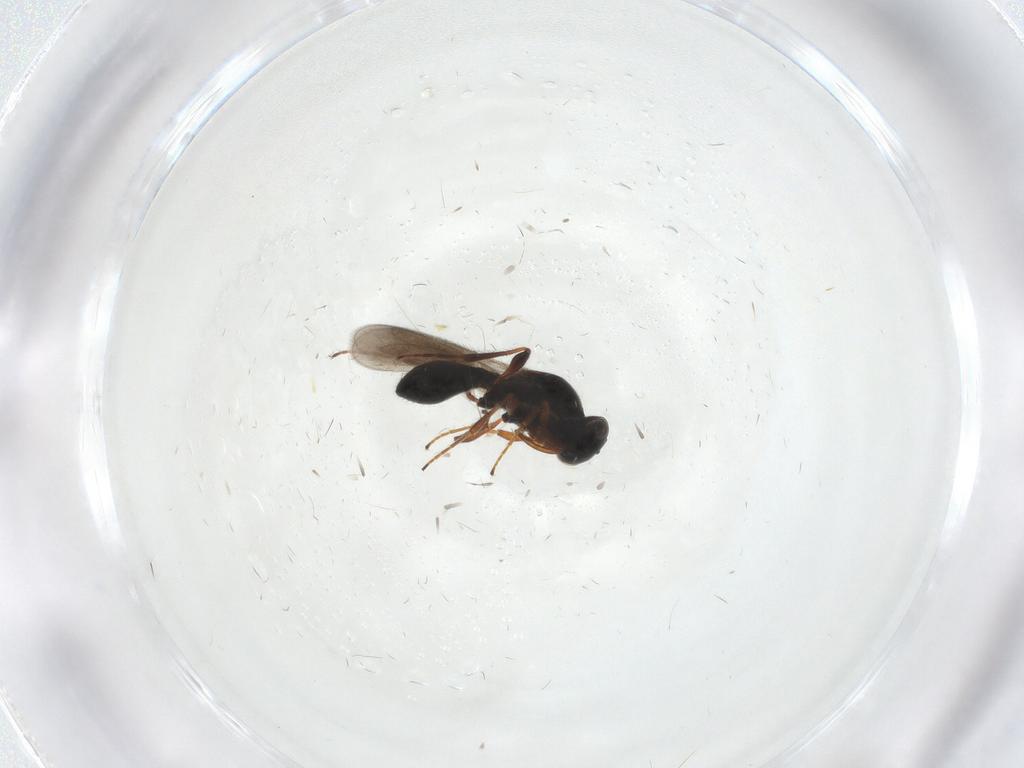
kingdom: Animalia
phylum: Arthropoda
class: Insecta
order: Hymenoptera
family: Platygastridae
